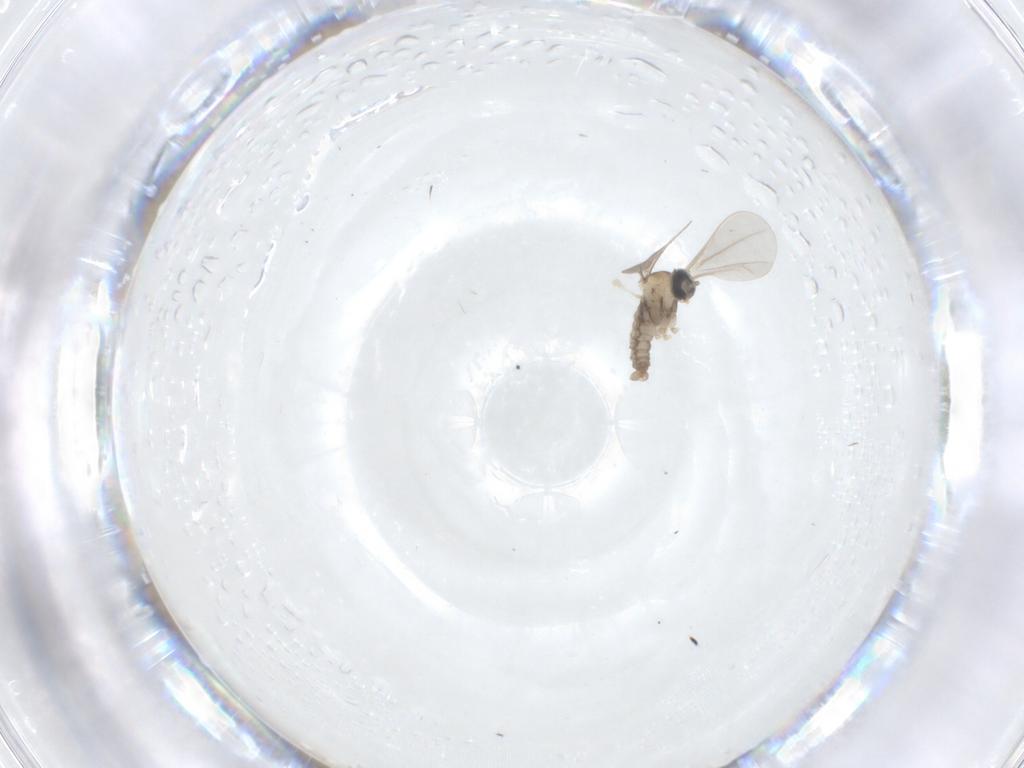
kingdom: Animalia
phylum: Arthropoda
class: Insecta
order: Diptera
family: Cecidomyiidae
